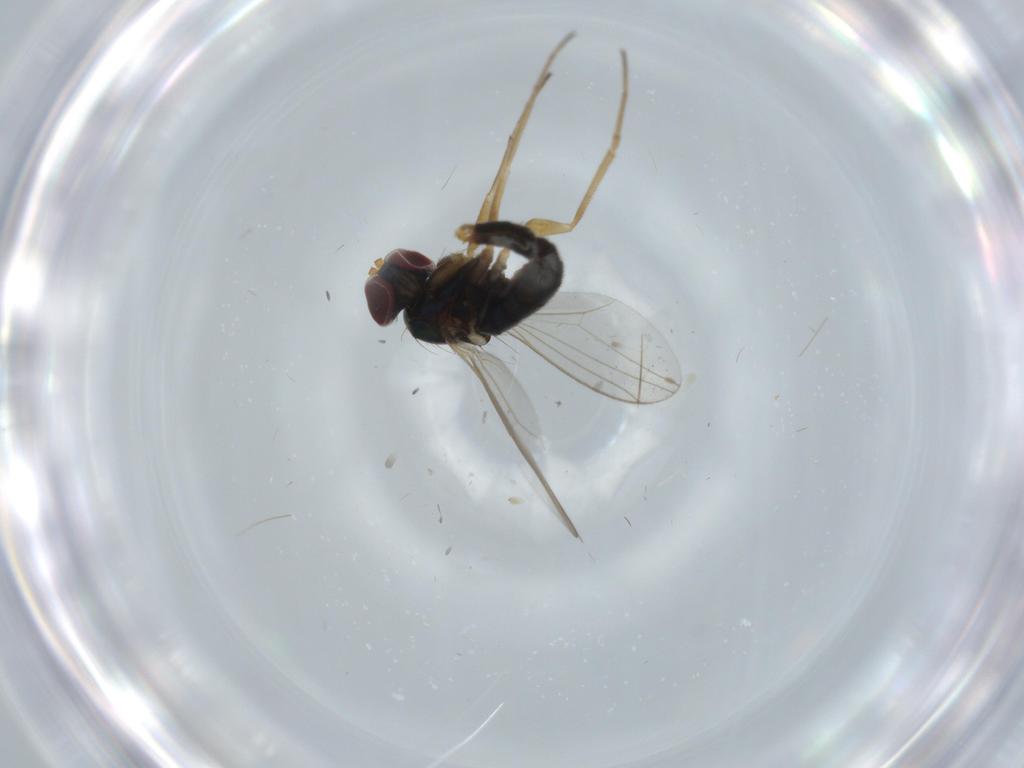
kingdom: Animalia
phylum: Arthropoda
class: Insecta
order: Diptera
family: Dolichopodidae
